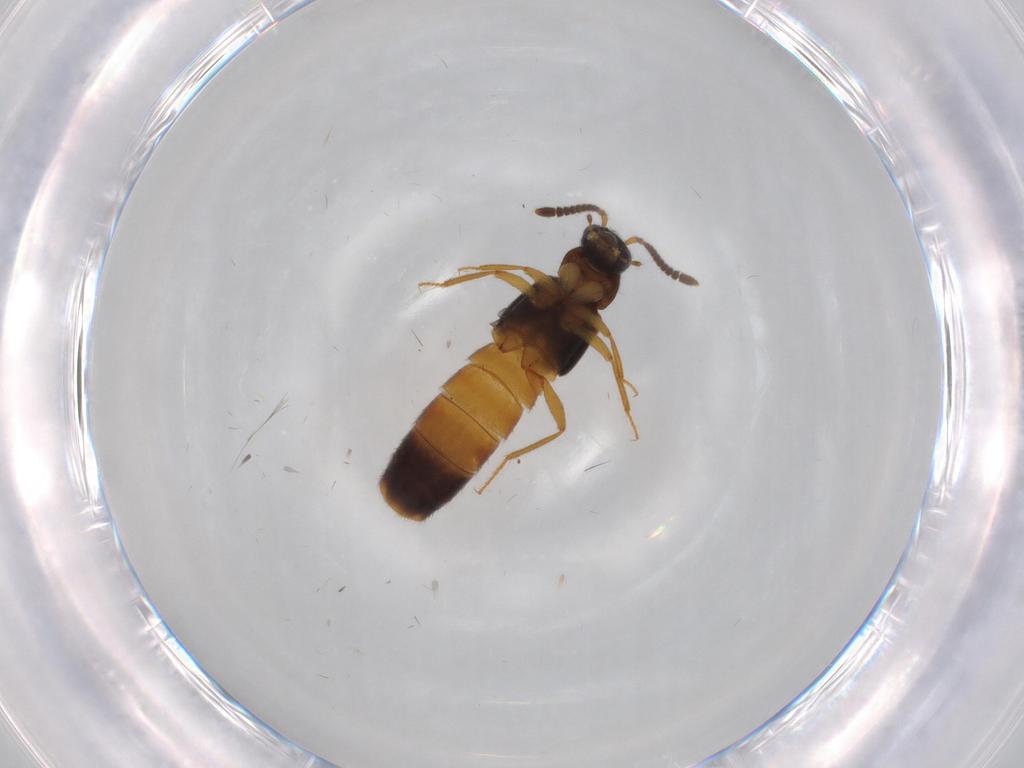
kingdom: Animalia
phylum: Arthropoda
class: Insecta
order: Coleoptera
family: Staphylinidae
